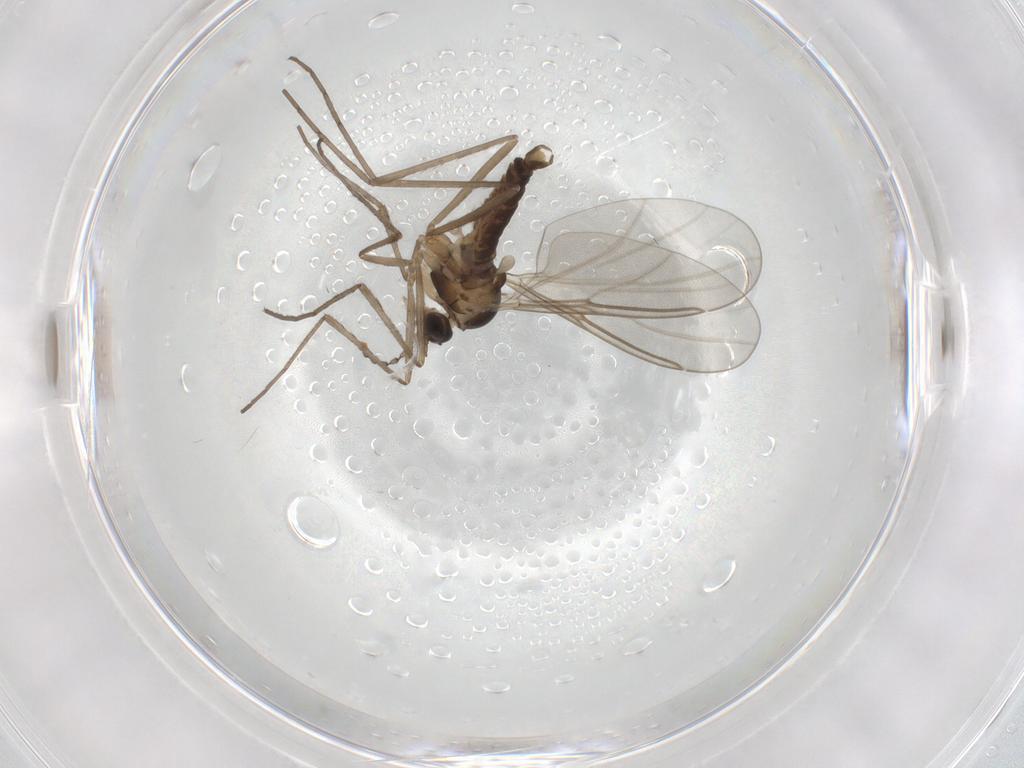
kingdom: Animalia
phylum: Arthropoda
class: Insecta
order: Diptera
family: Cecidomyiidae
